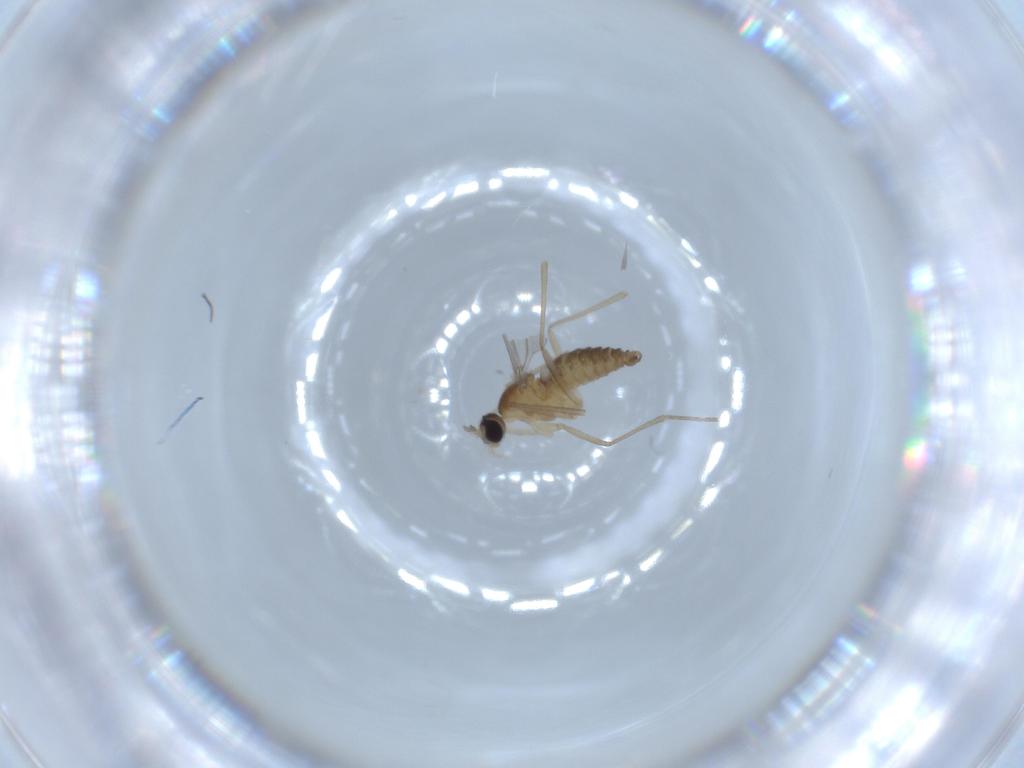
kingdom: Animalia
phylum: Arthropoda
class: Insecta
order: Diptera
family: Cecidomyiidae
